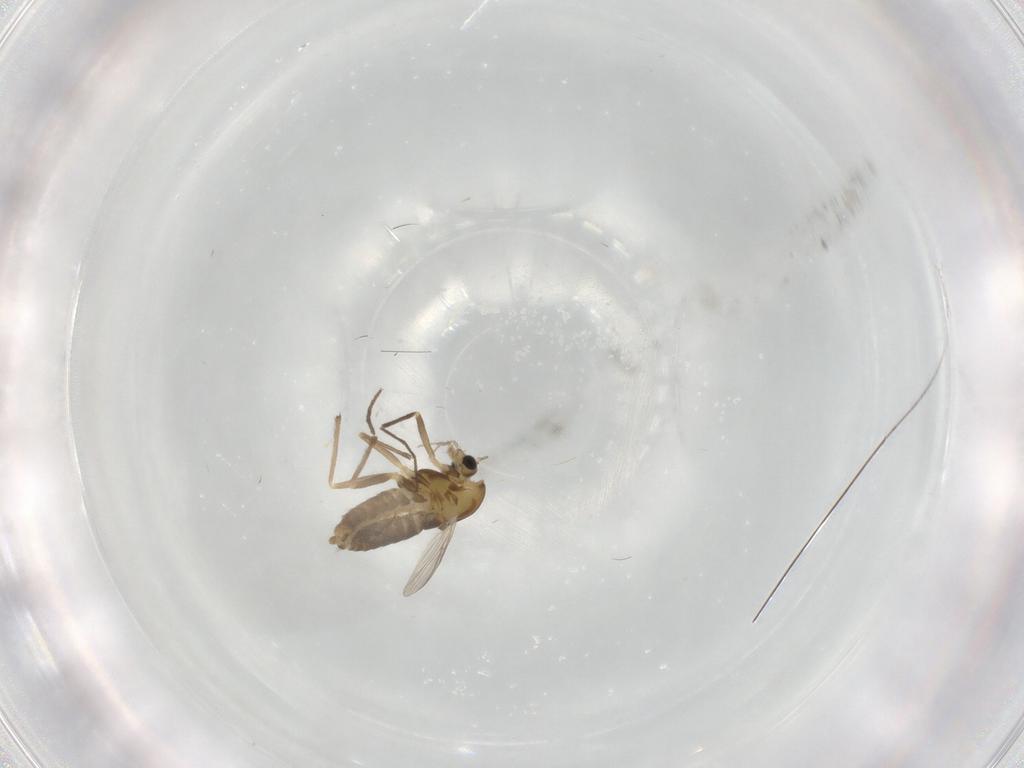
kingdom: Animalia
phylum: Arthropoda
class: Insecta
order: Diptera
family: Chironomidae
